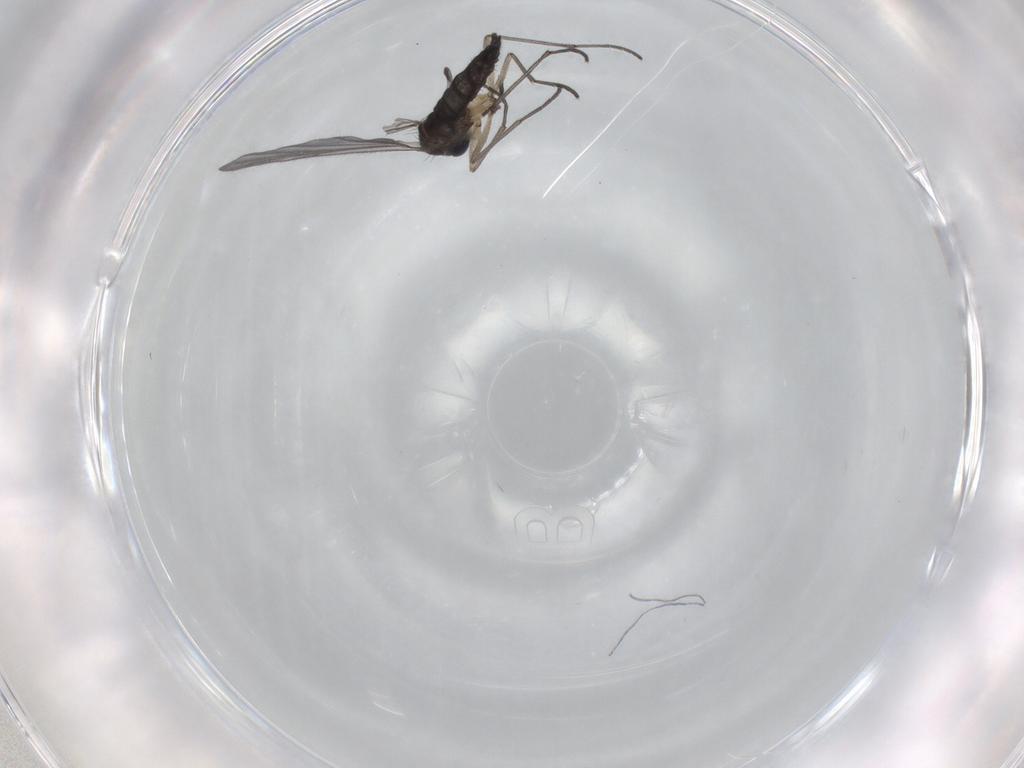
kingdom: Animalia
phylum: Arthropoda
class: Insecta
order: Diptera
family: Sciaridae
